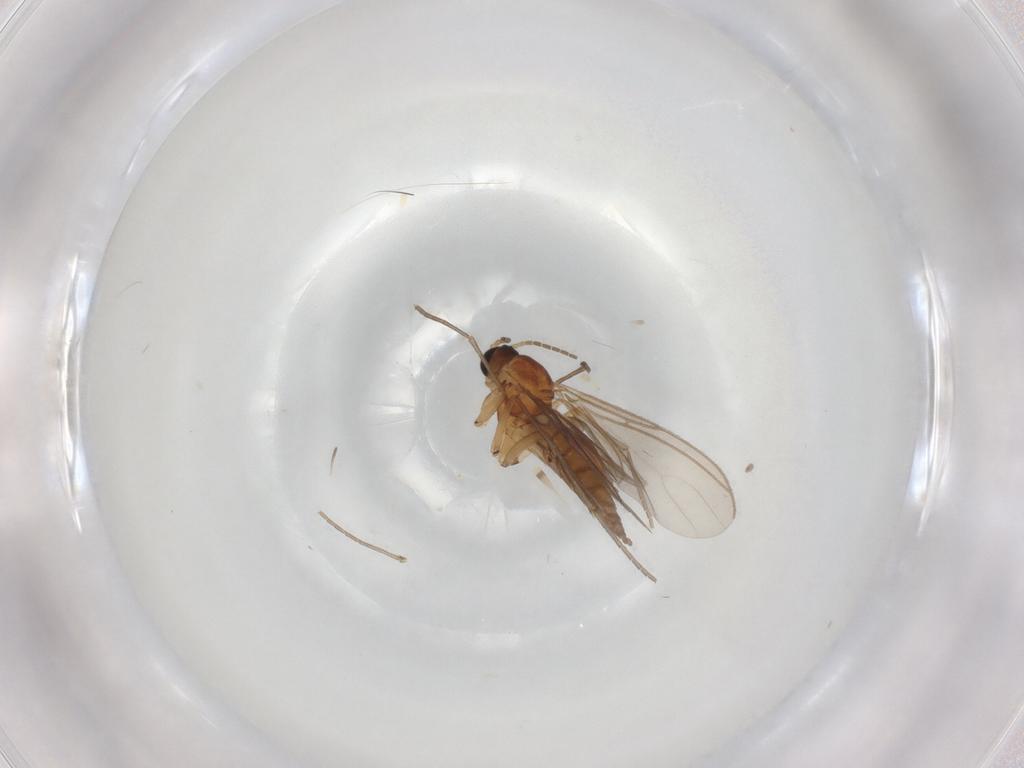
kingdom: Animalia
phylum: Arthropoda
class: Insecta
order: Diptera
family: Sciaridae
